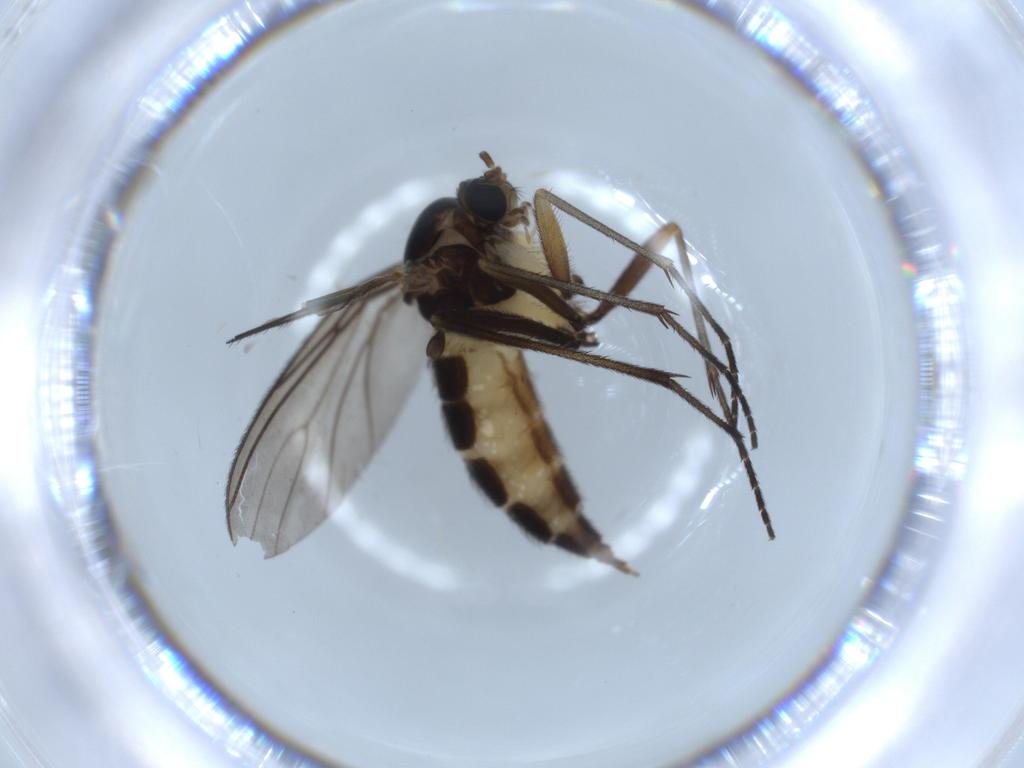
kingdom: Animalia
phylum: Arthropoda
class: Insecta
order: Diptera
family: Sciaridae
